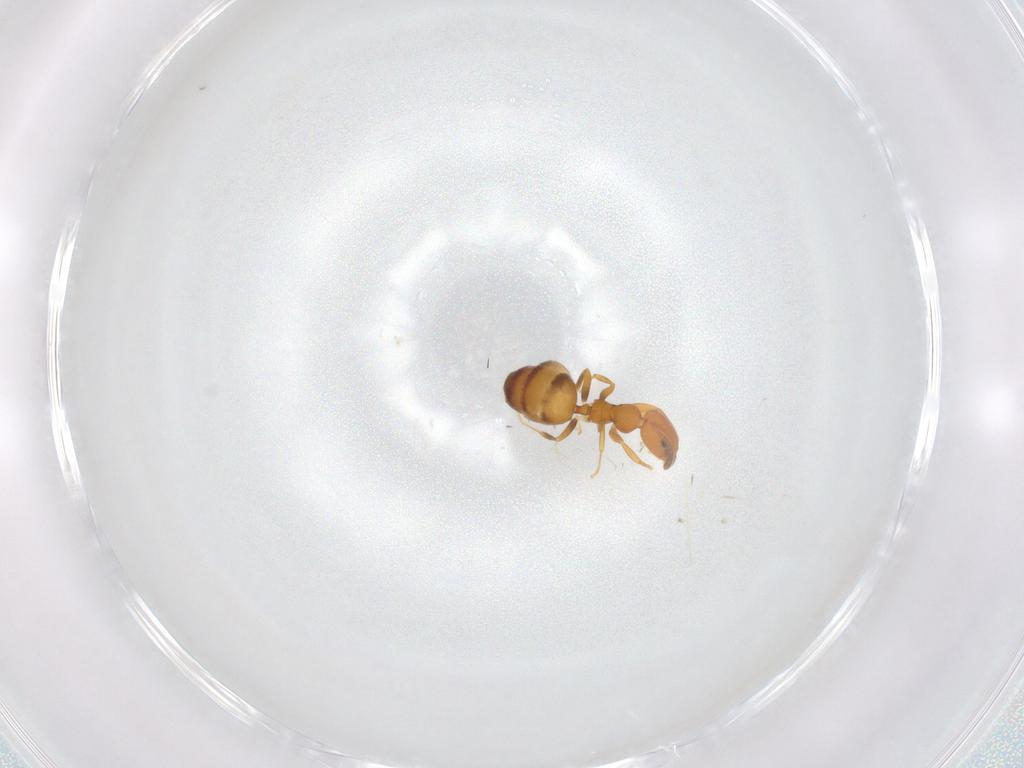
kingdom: Animalia
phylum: Arthropoda
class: Insecta
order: Hymenoptera
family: Formicidae
